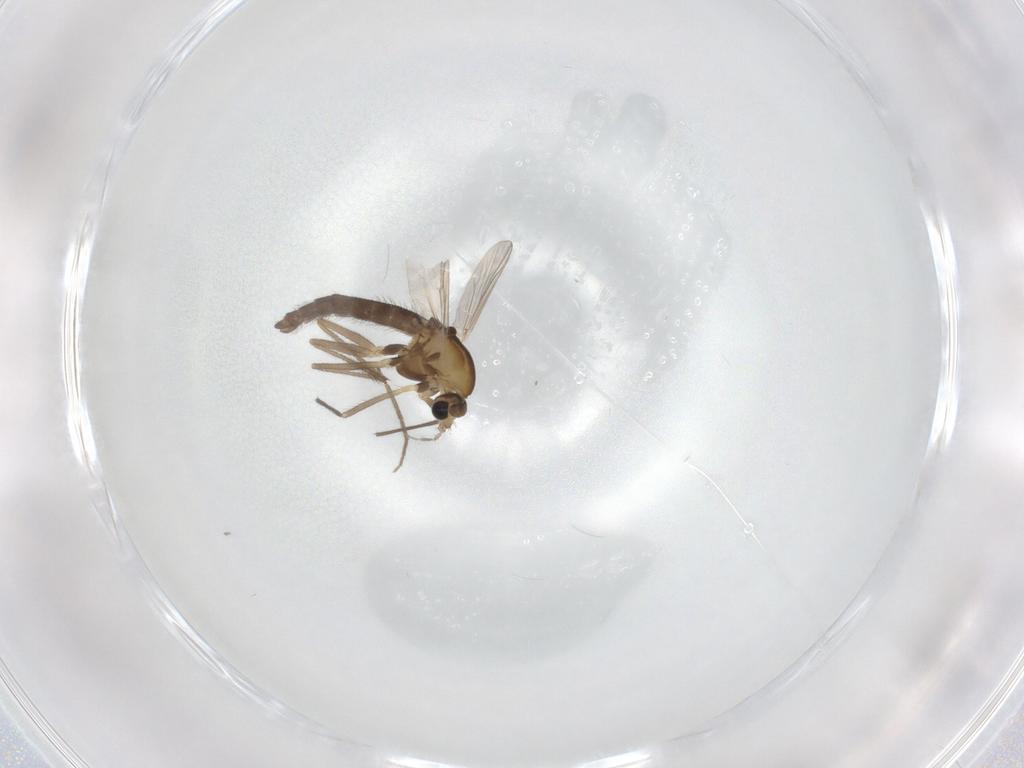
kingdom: Animalia
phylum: Arthropoda
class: Insecta
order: Diptera
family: Chironomidae
